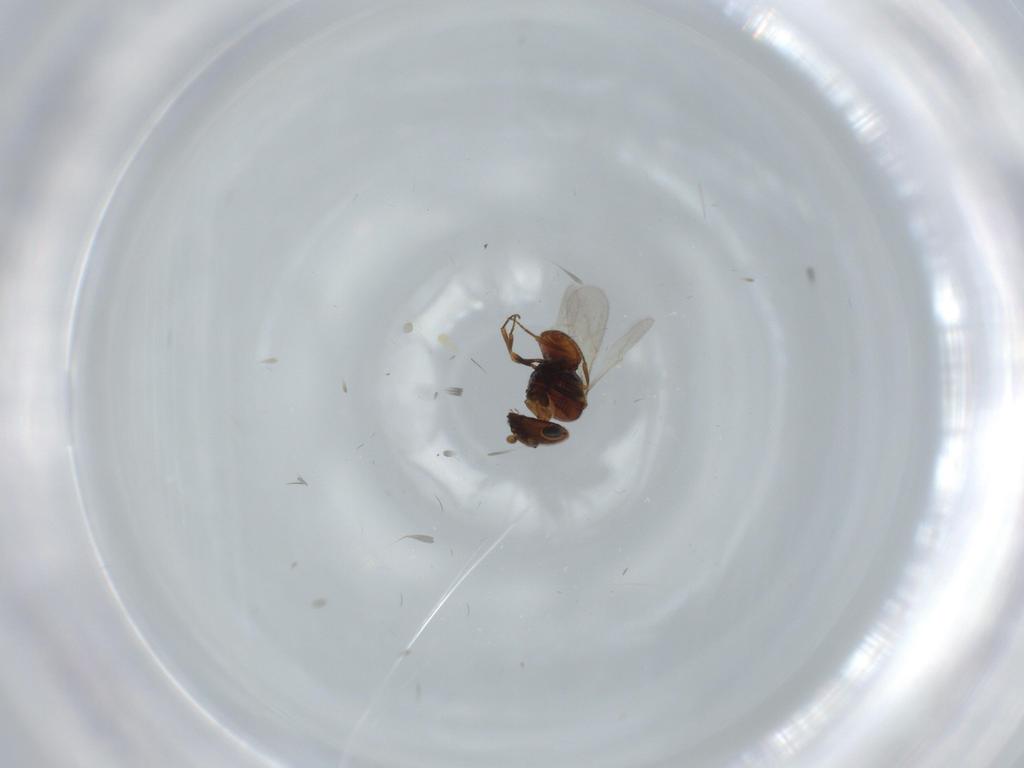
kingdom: Animalia
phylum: Arthropoda
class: Insecta
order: Hymenoptera
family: Scelionidae
